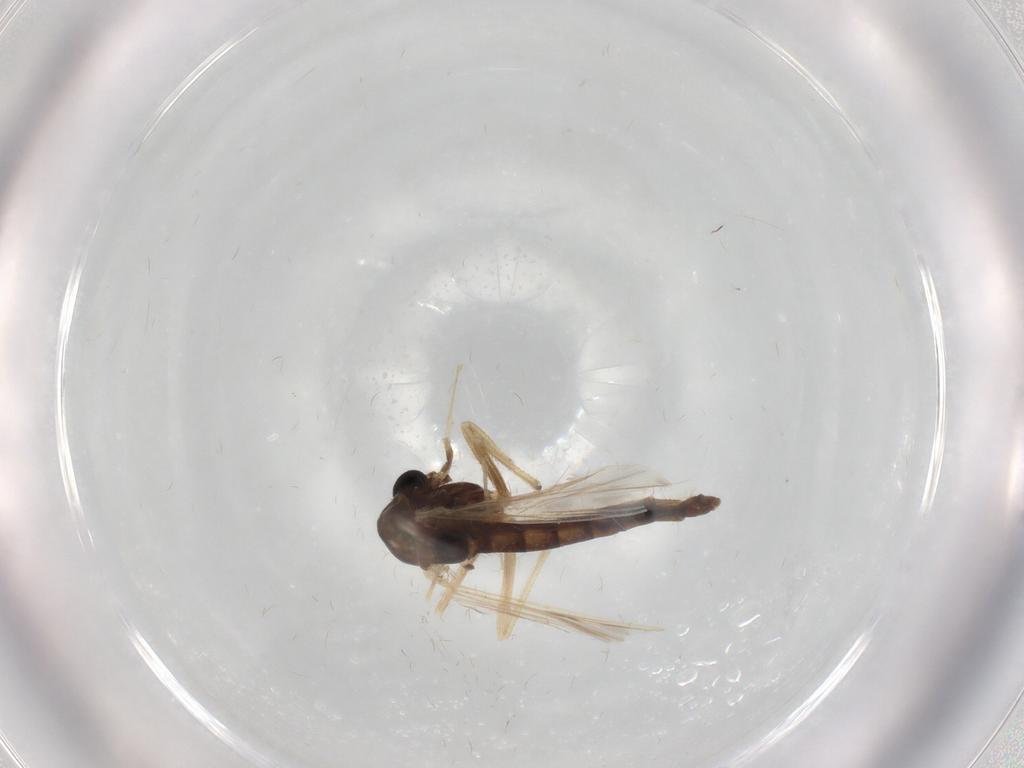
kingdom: Animalia
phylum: Arthropoda
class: Insecta
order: Diptera
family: Chironomidae
